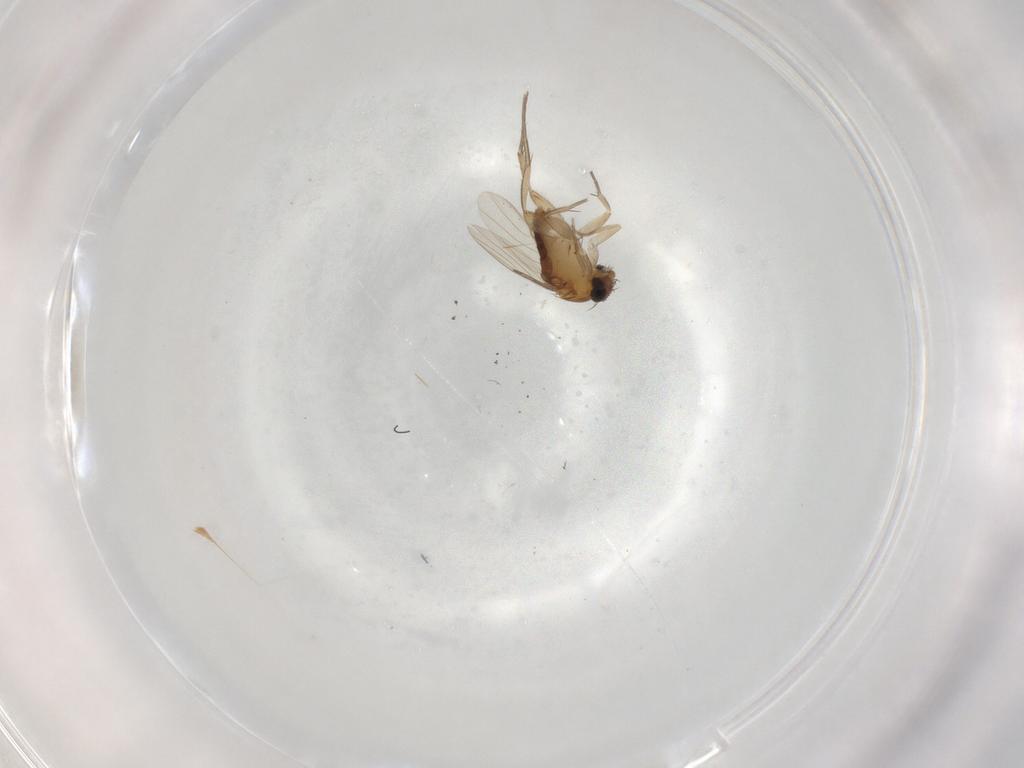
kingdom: Animalia
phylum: Arthropoda
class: Insecta
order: Diptera
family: Phoridae
